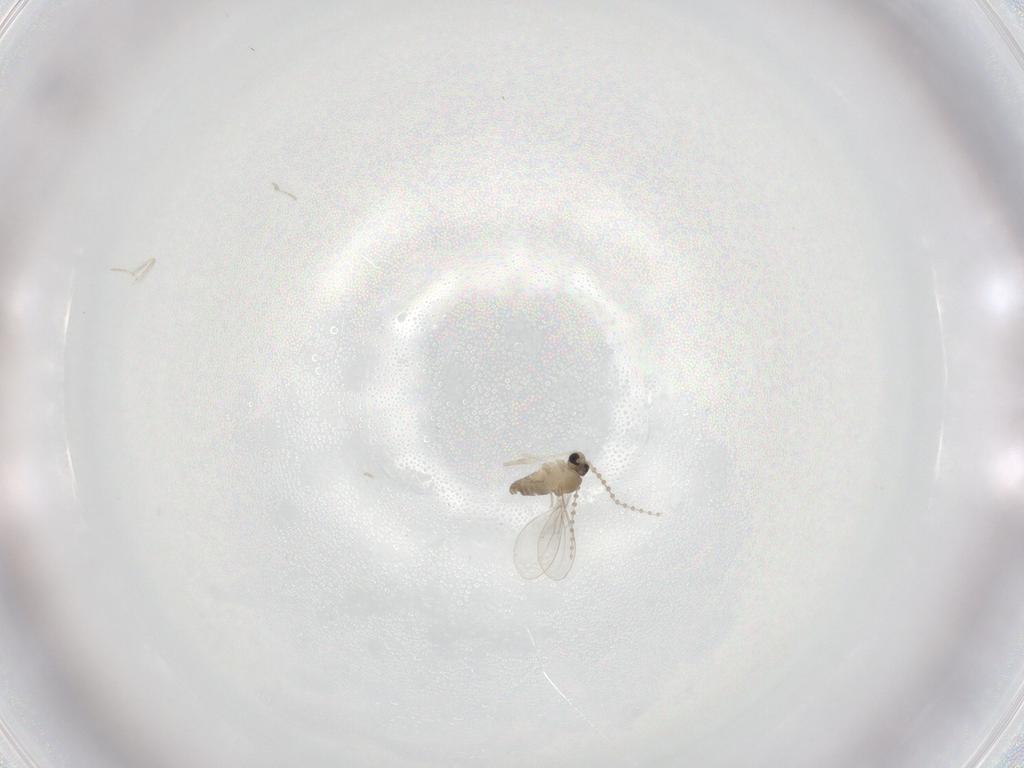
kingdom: Animalia
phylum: Arthropoda
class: Insecta
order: Diptera
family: Cecidomyiidae
